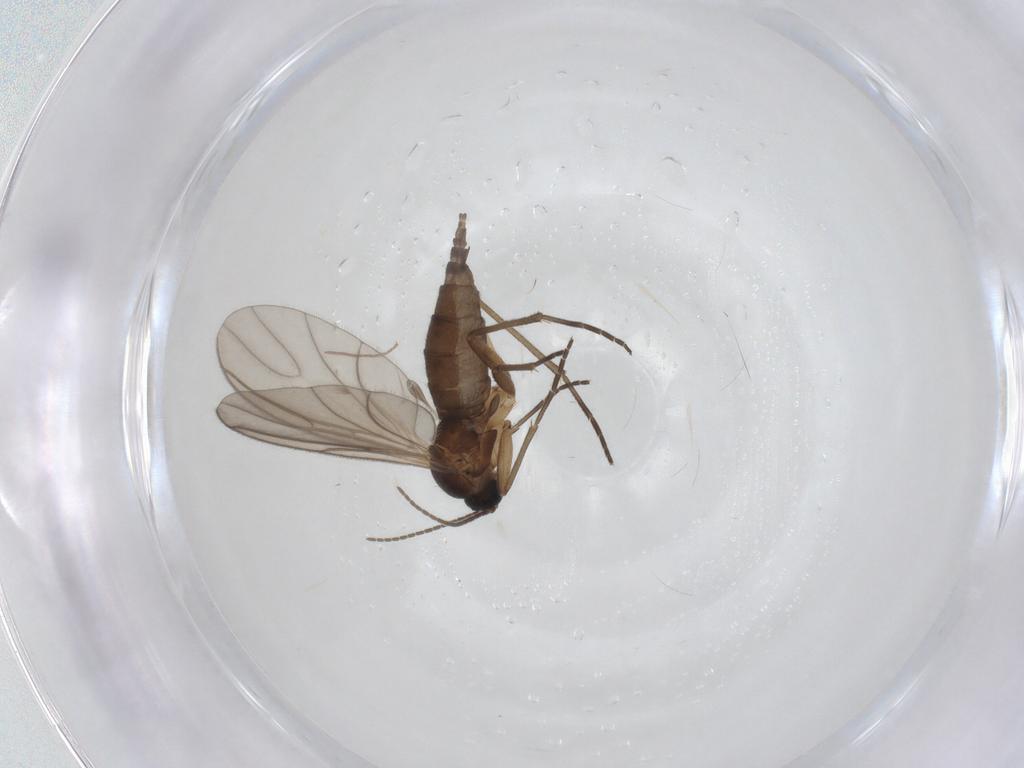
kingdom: Animalia
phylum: Arthropoda
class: Insecta
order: Diptera
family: Sciaridae
